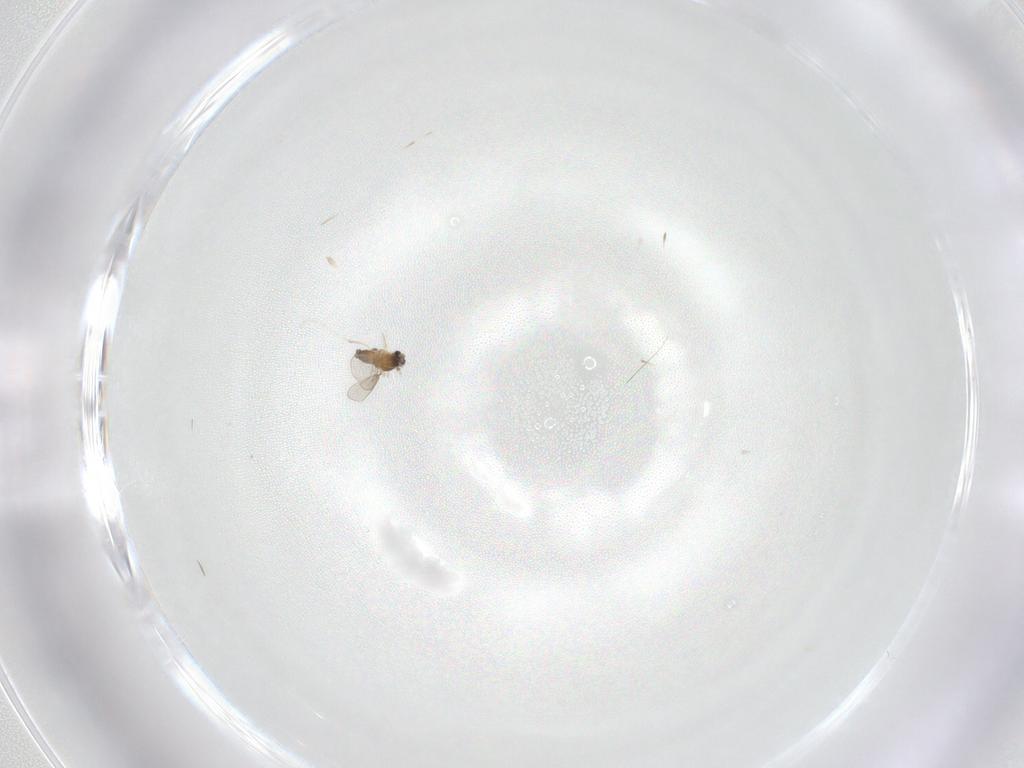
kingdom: Animalia
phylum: Arthropoda
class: Insecta
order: Diptera
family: Cecidomyiidae
